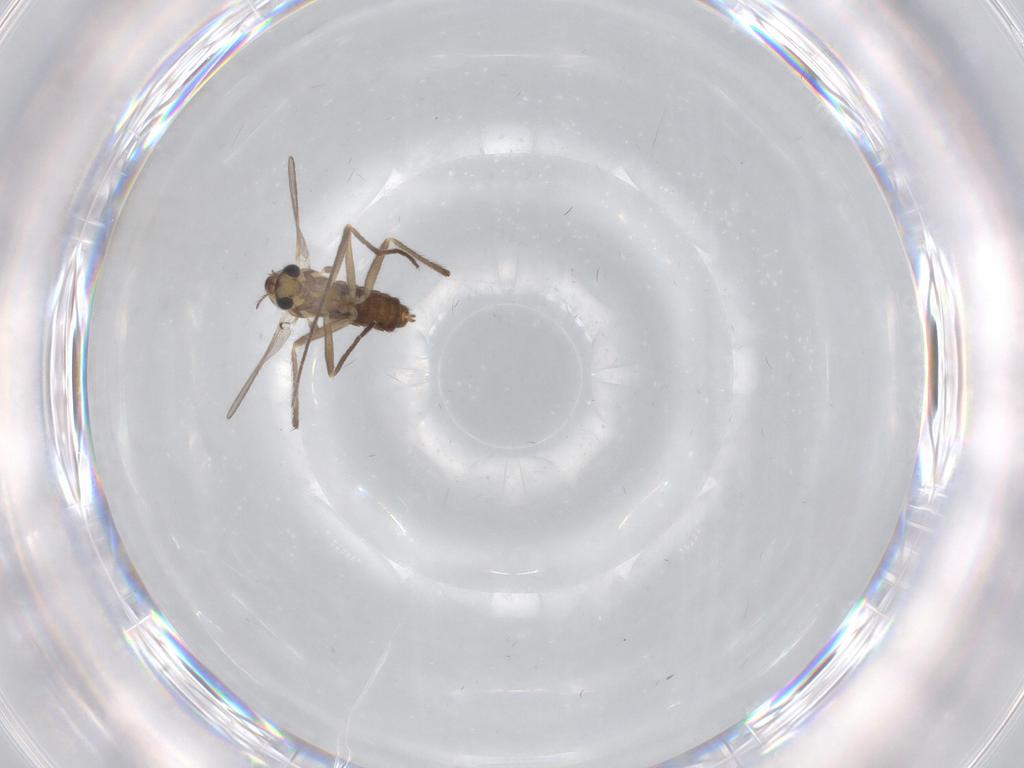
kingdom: Animalia
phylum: Arthropoda
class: Insecta
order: Diptera
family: Chironomidae
